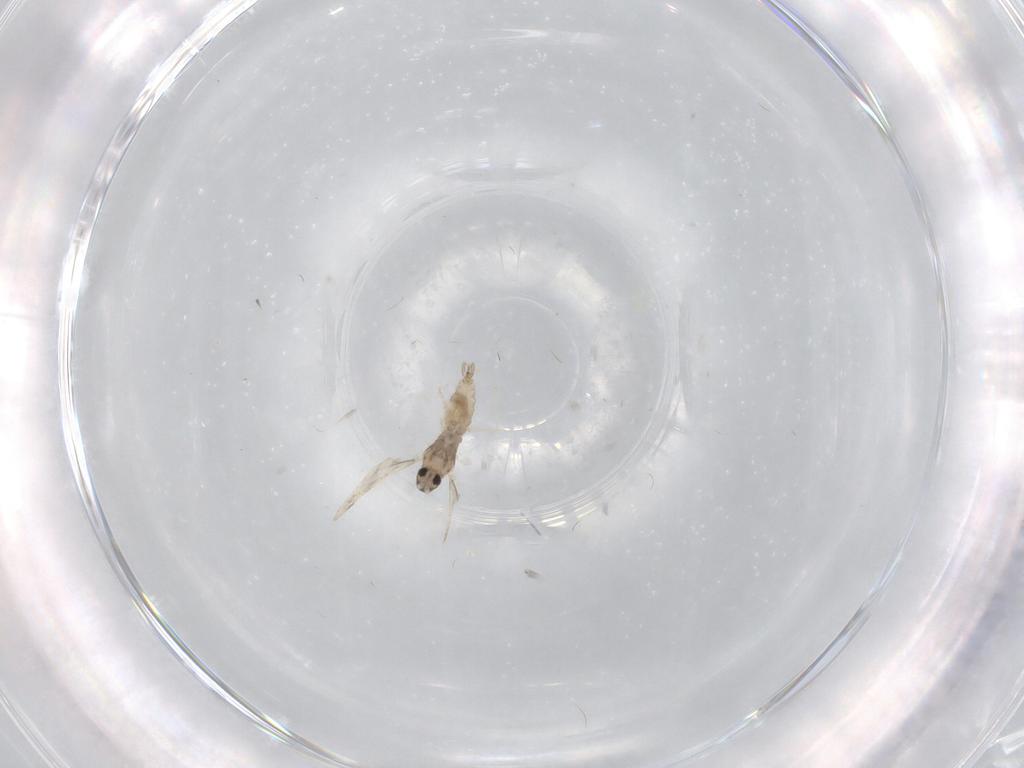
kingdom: Animalia
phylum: Arthropoda
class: Insecta
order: Diptera
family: Cecidomyiidae
